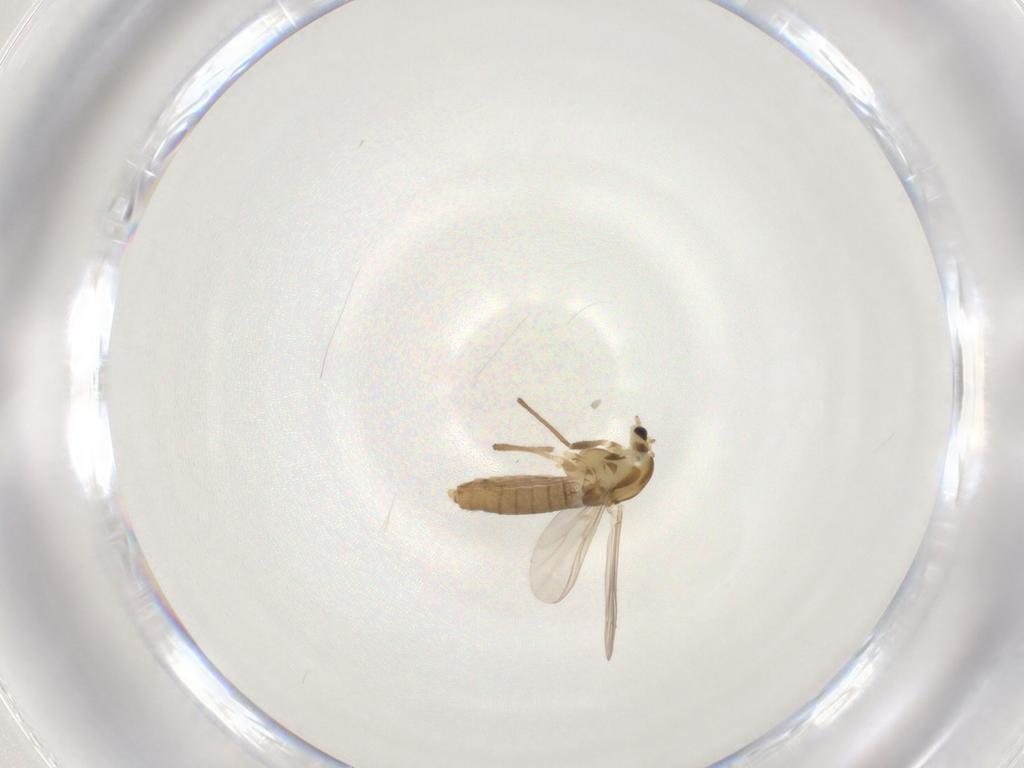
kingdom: Animalia
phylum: Arthropoda
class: Insecta
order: Diptera
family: Chironomidae
